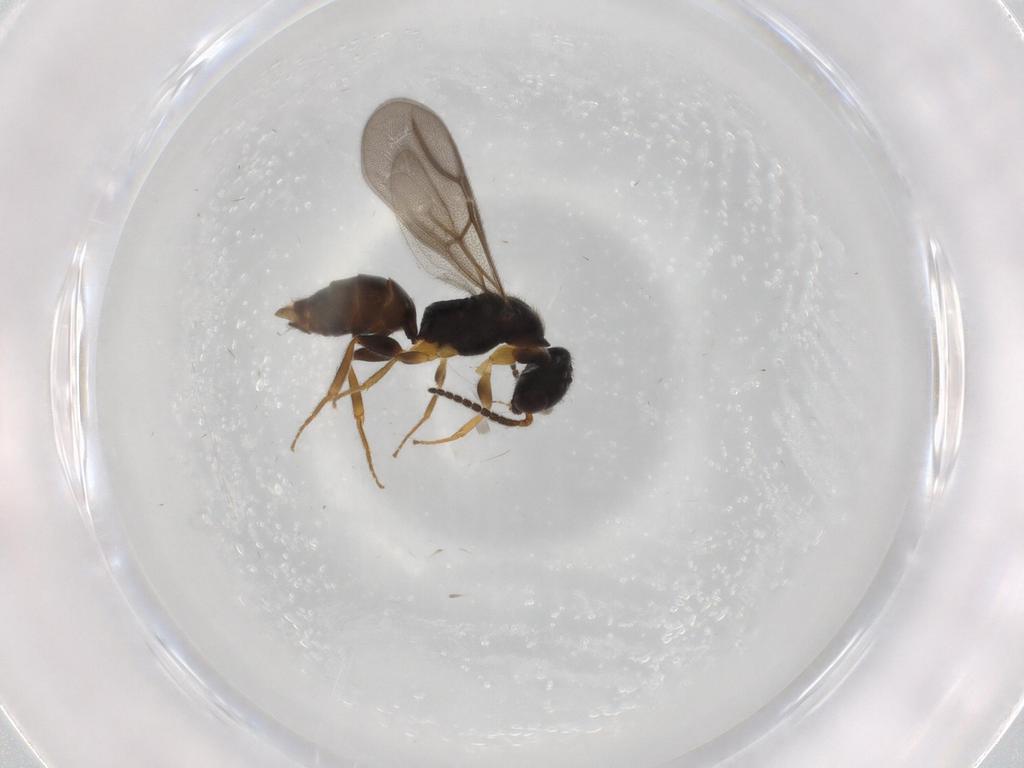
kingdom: Animalia
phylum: Arthropoda
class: Insecta
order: Hymenoptera
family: Bethylidae
